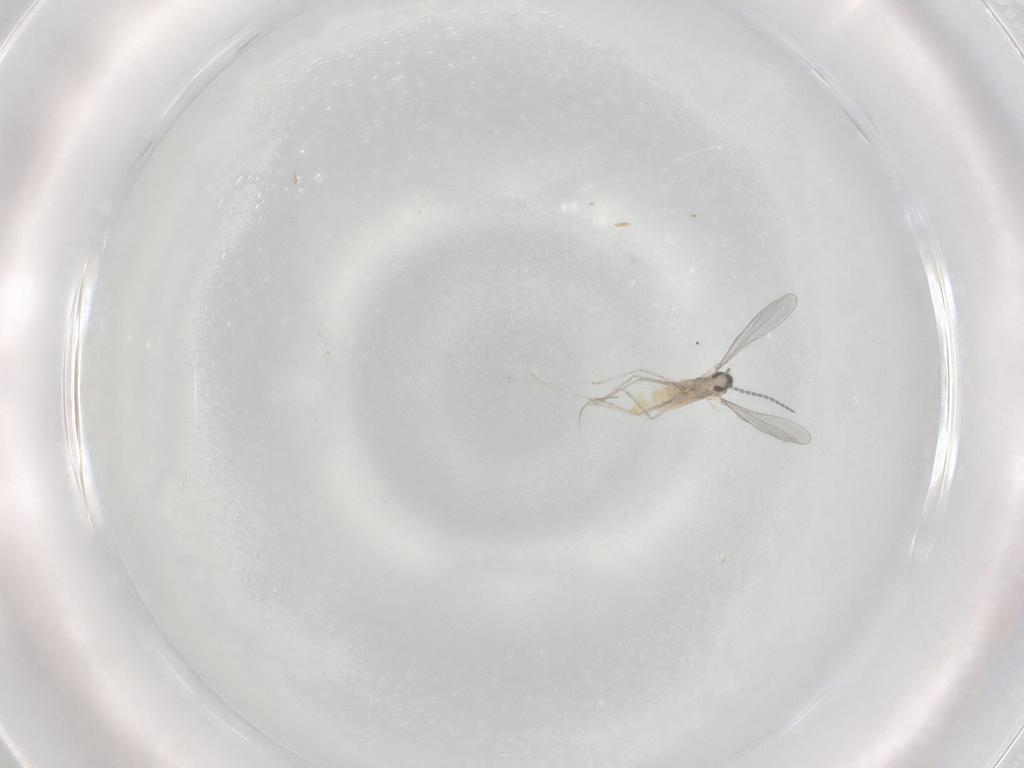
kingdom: Animalia
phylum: Arthropoda
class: Insecta
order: Diptera
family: Cecidomyiidae
